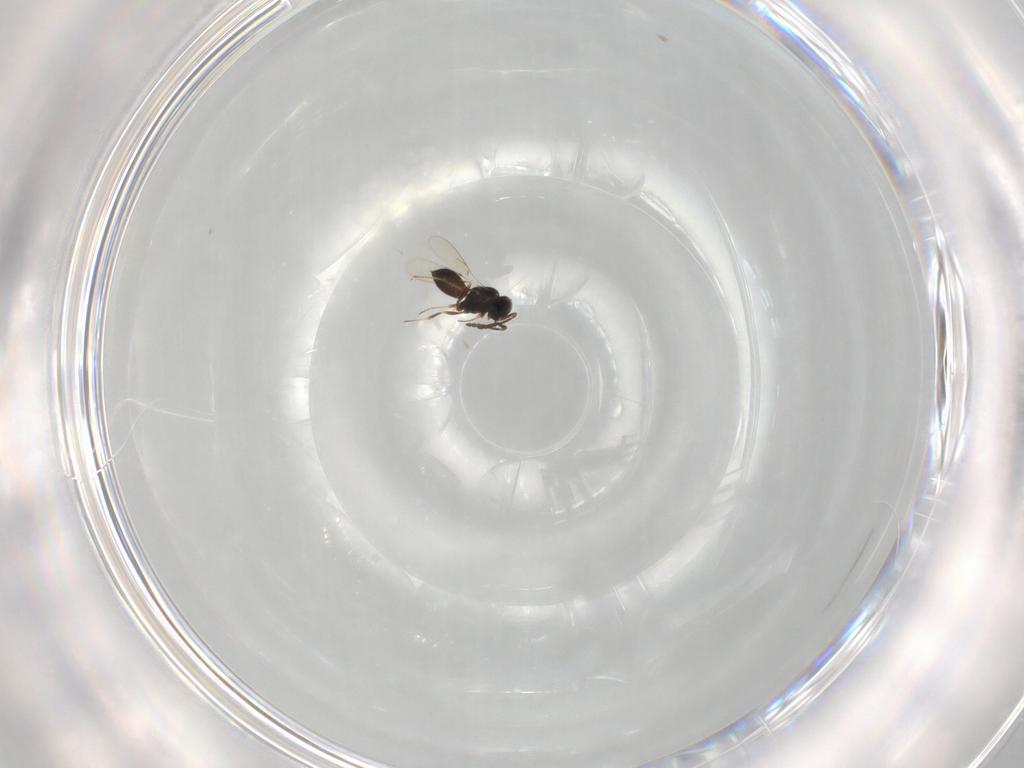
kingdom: Animalia
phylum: Arthropoda
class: Insecta
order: Hymenoptera
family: Scelionidae
